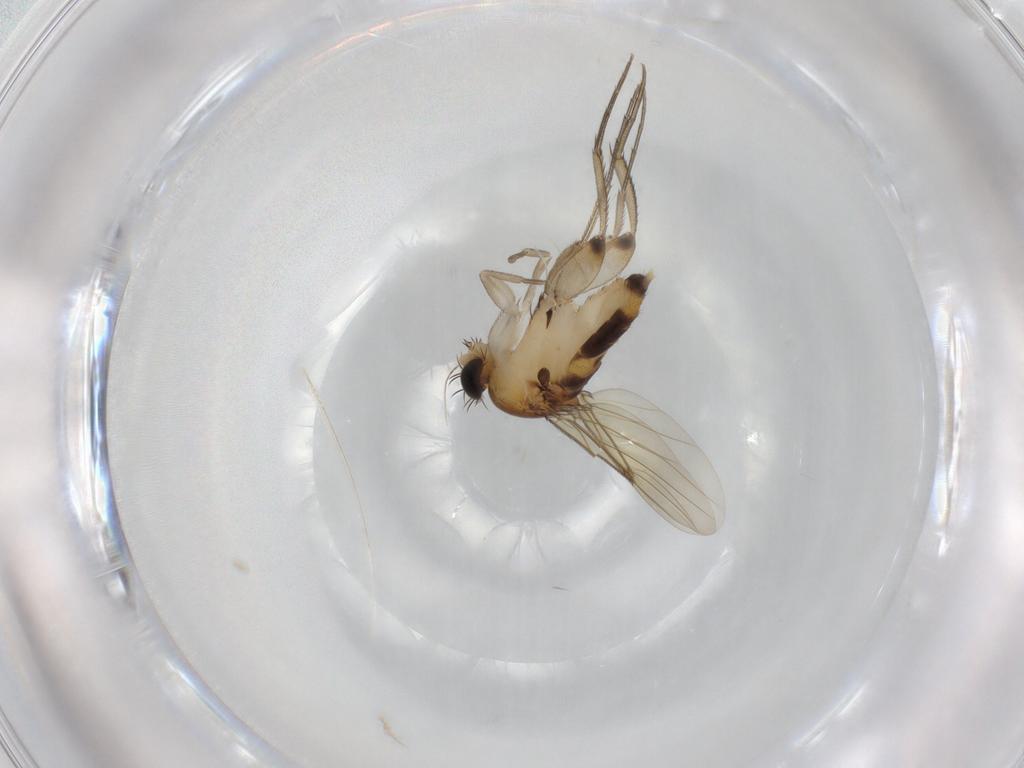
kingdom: Animalia
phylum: Arthropoda
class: Insecta
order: Diptera
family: Phoridae
